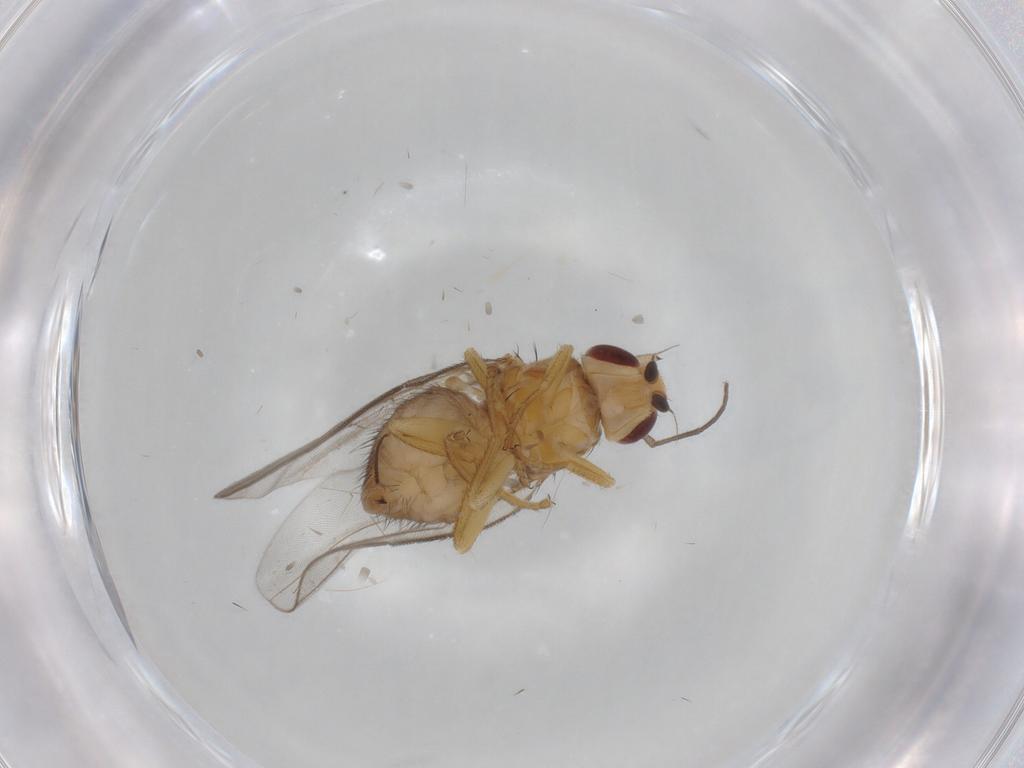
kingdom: Animalia
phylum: Arthropoda
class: Insecta
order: Diptera
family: Chloropidae
